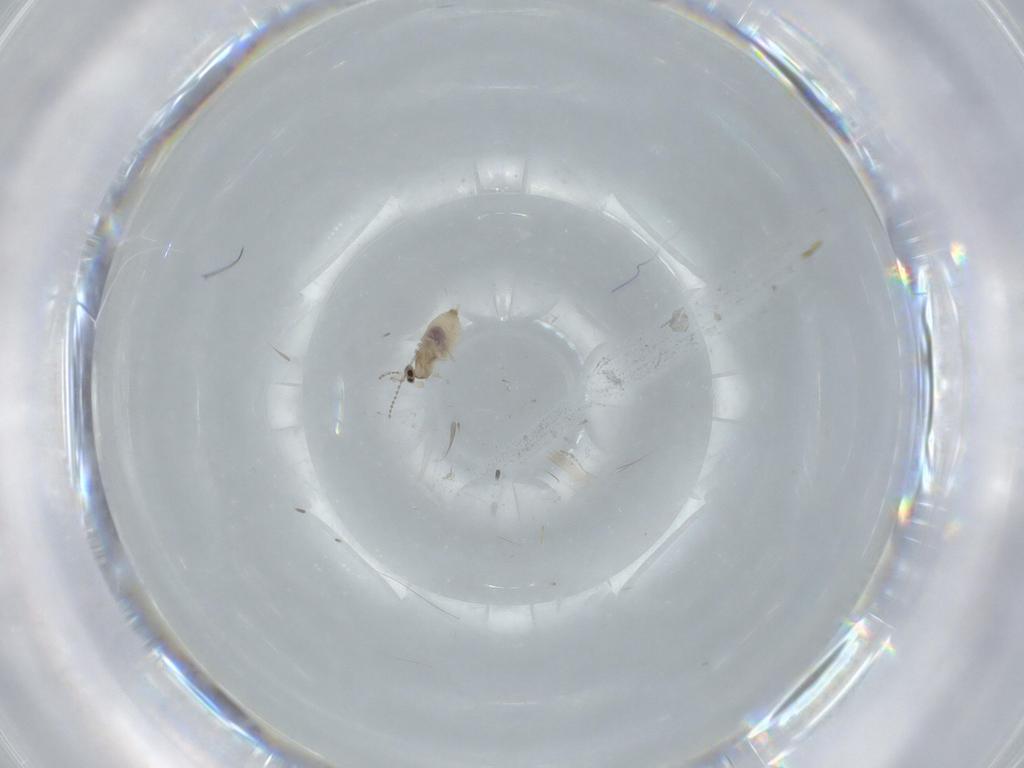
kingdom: Animalia
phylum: Arthropoda
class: Insecta
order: Diptera
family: Cecidomyiidae
